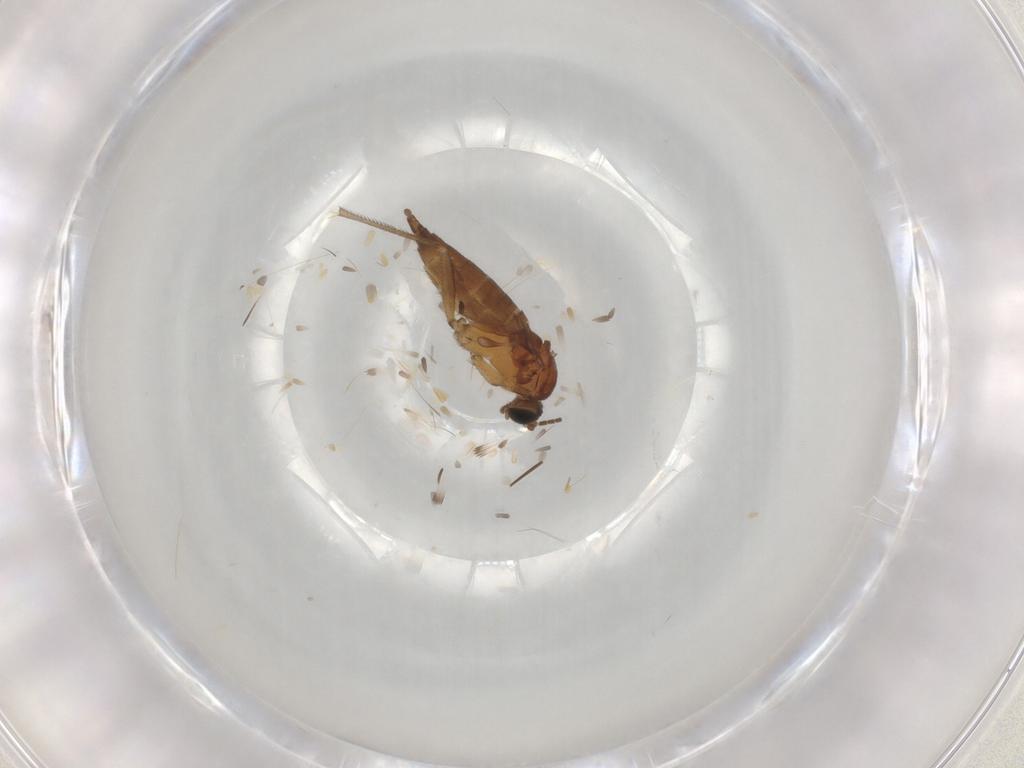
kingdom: Animalia
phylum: Arthropoda
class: Insecta
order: Diptera
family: Sciaridae
